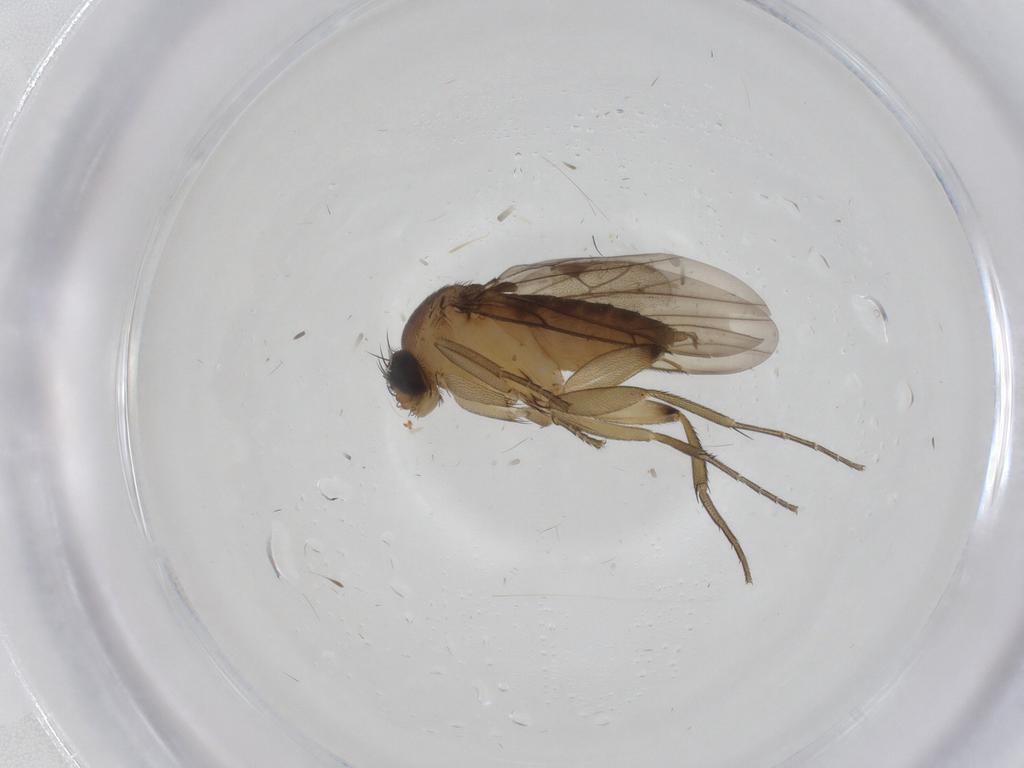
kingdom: Animalia
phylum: Arthropoda
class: Insecta
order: Diptera
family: Phoridae
